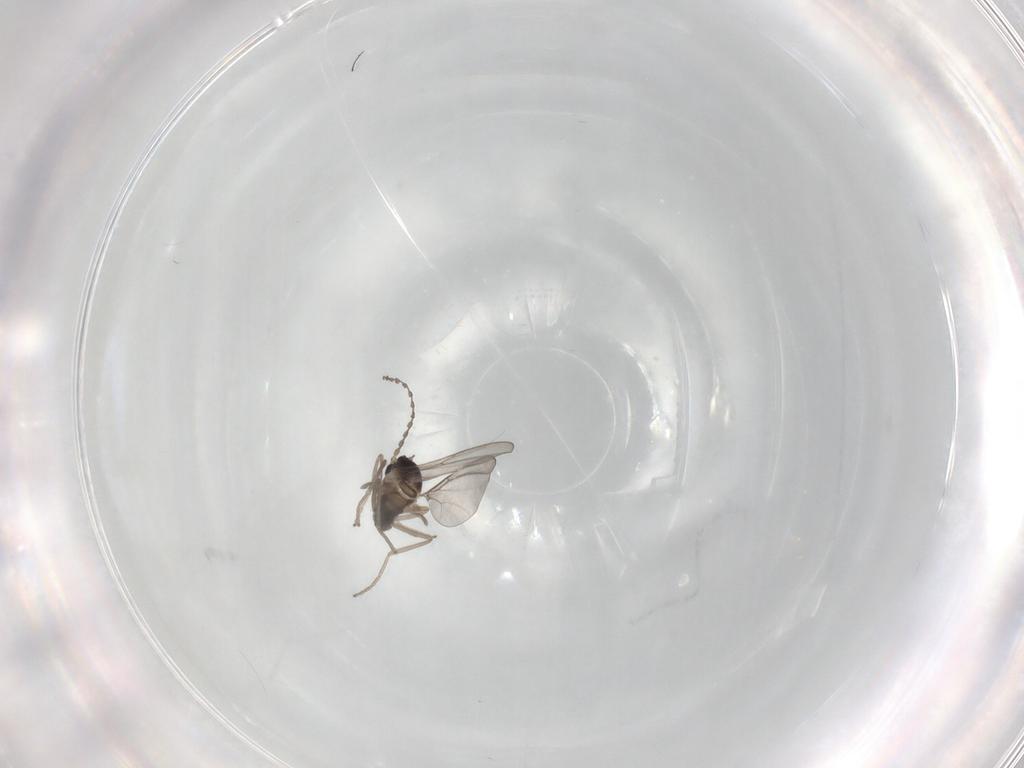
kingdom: Animalia
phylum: Arthropoda
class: Insecta
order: Diptera
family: Cecidomyiidae
